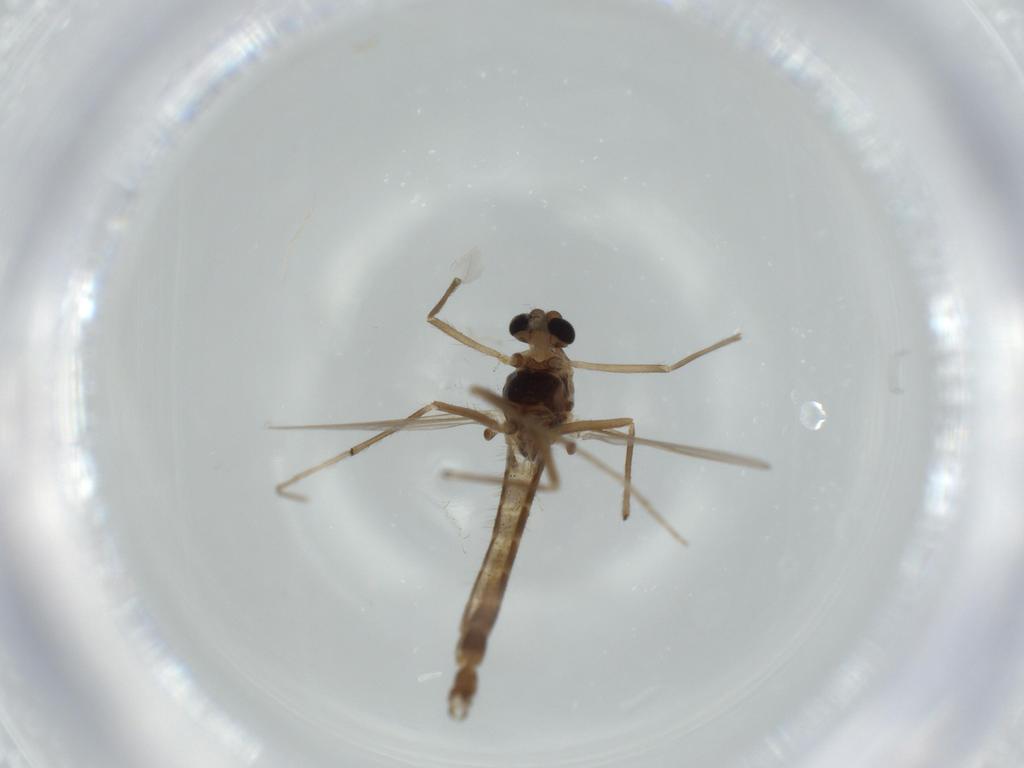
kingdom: Animalia
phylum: Arthropoda
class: Insecta
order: Diptera
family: Chironomidae
